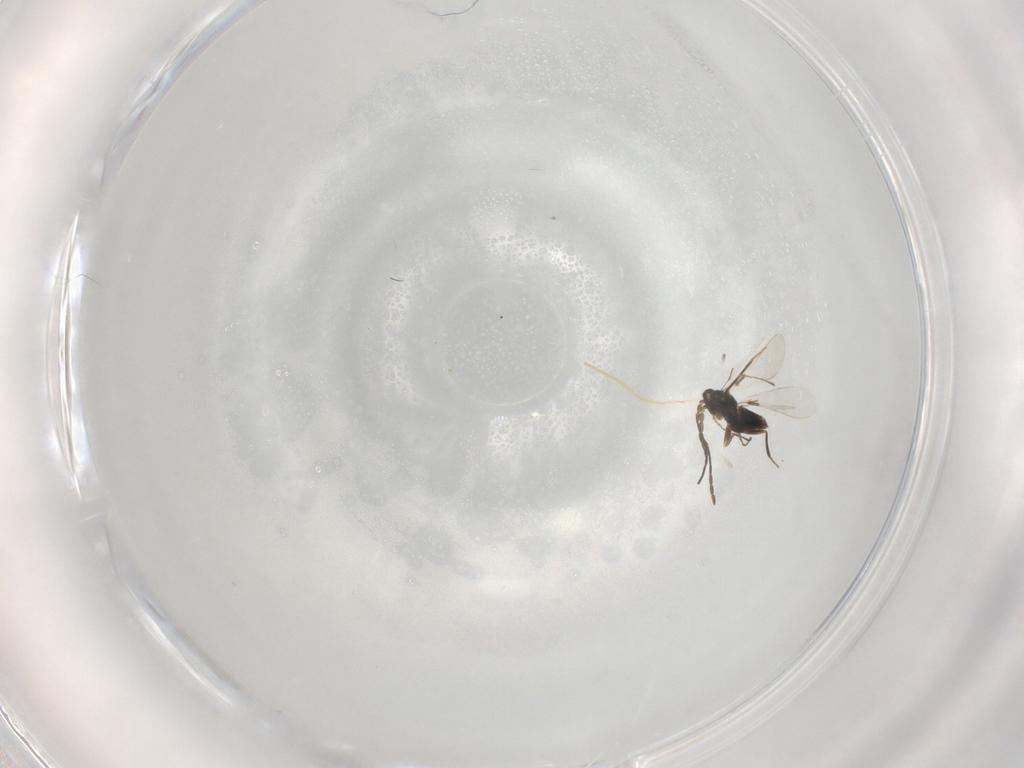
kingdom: Animalia
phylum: Arthropoda
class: Insecta
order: Hymenoptera
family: Mymaridae
